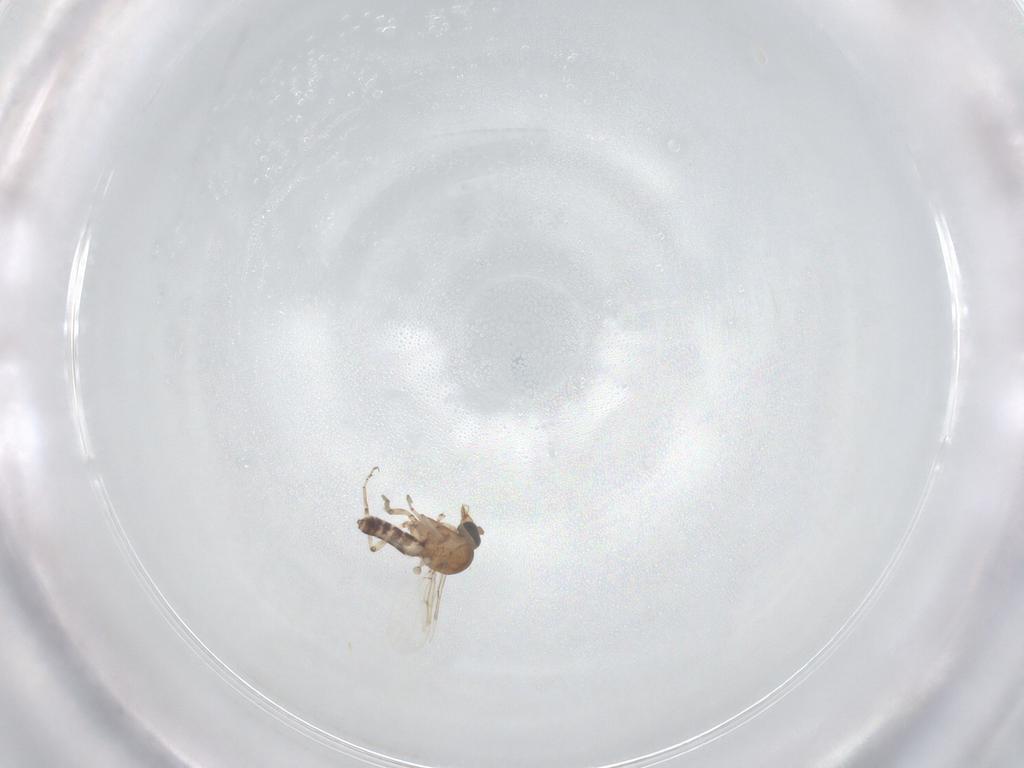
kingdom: Animalia
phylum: Arthropoda
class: Insecta
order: Diptera
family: Ceratopogonidae
